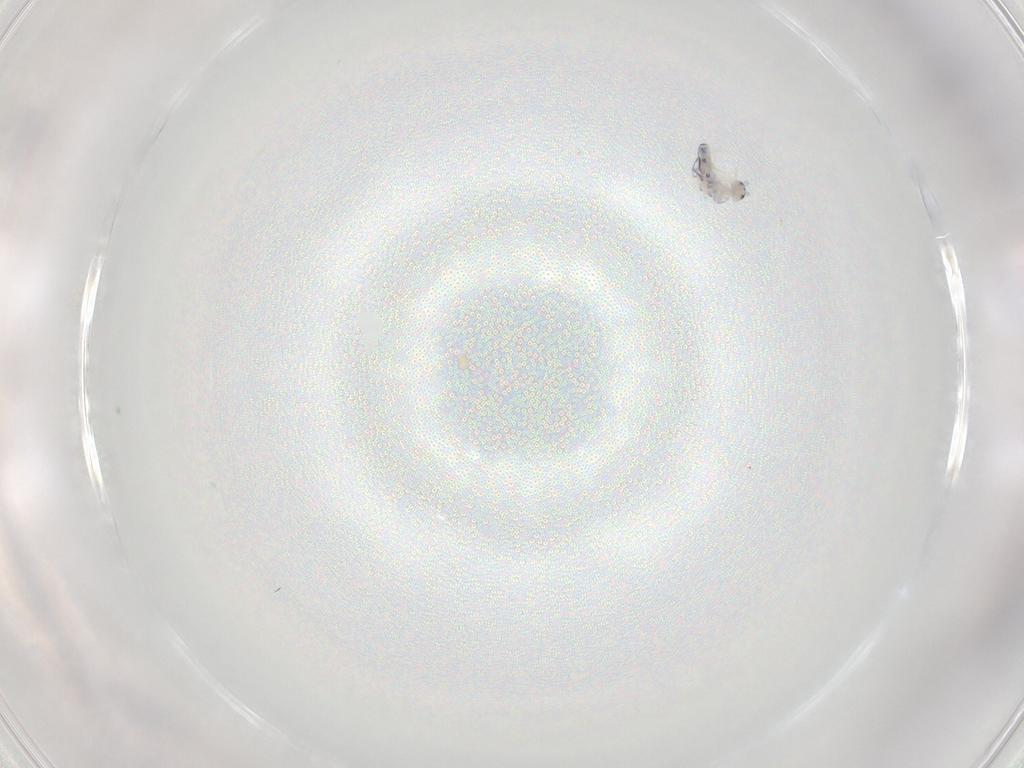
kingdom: Animalia
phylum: Arthropoda
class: Collembola
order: Entomobryomorpha
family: Entomobryidae
